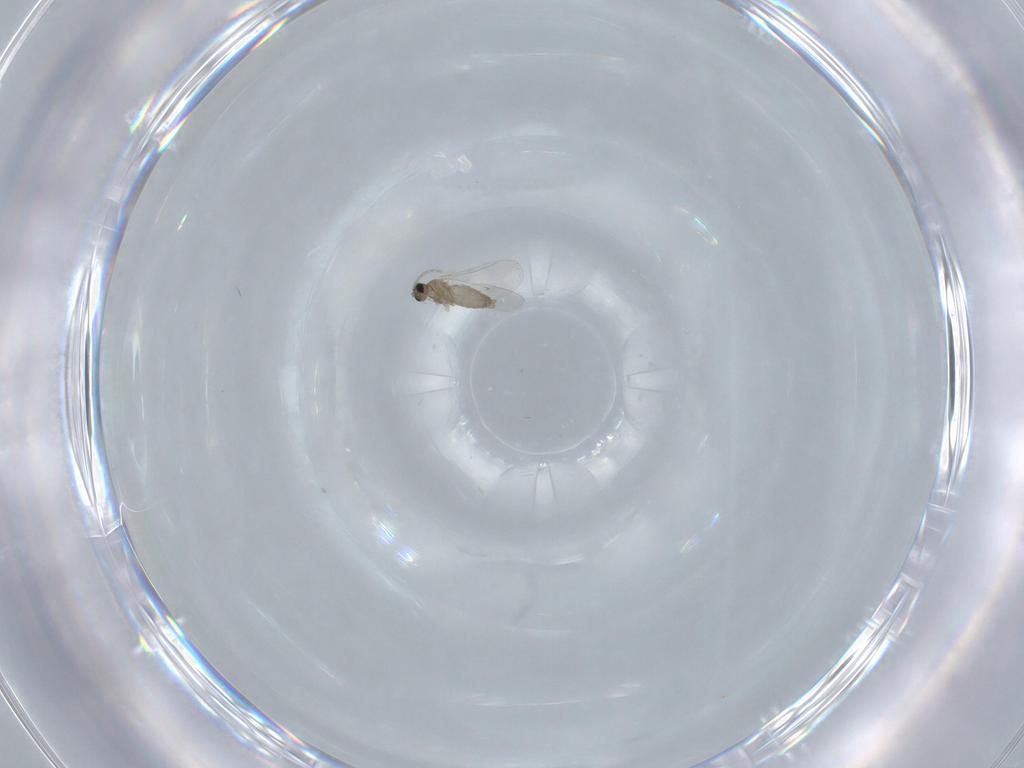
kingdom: Animalia
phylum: Arthropoda
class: Insecta
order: Diptera
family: Cecidomyiidae
